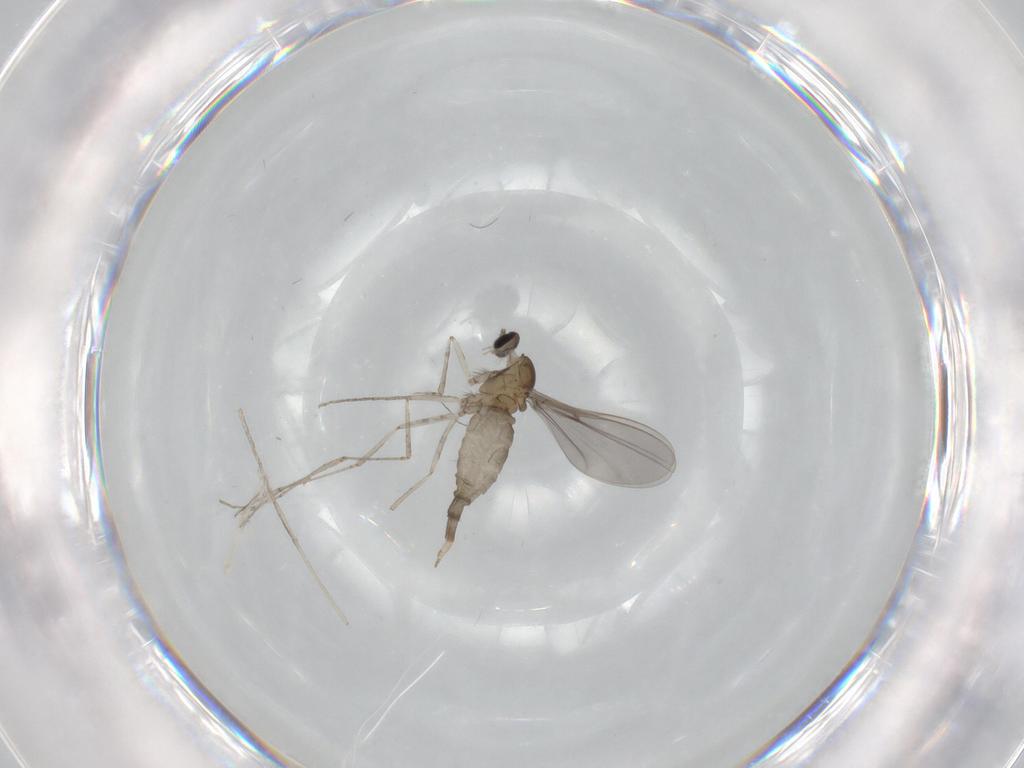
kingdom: Animalia
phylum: Arthropoda
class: Insecta
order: Diptera
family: Cecidomyiidae
